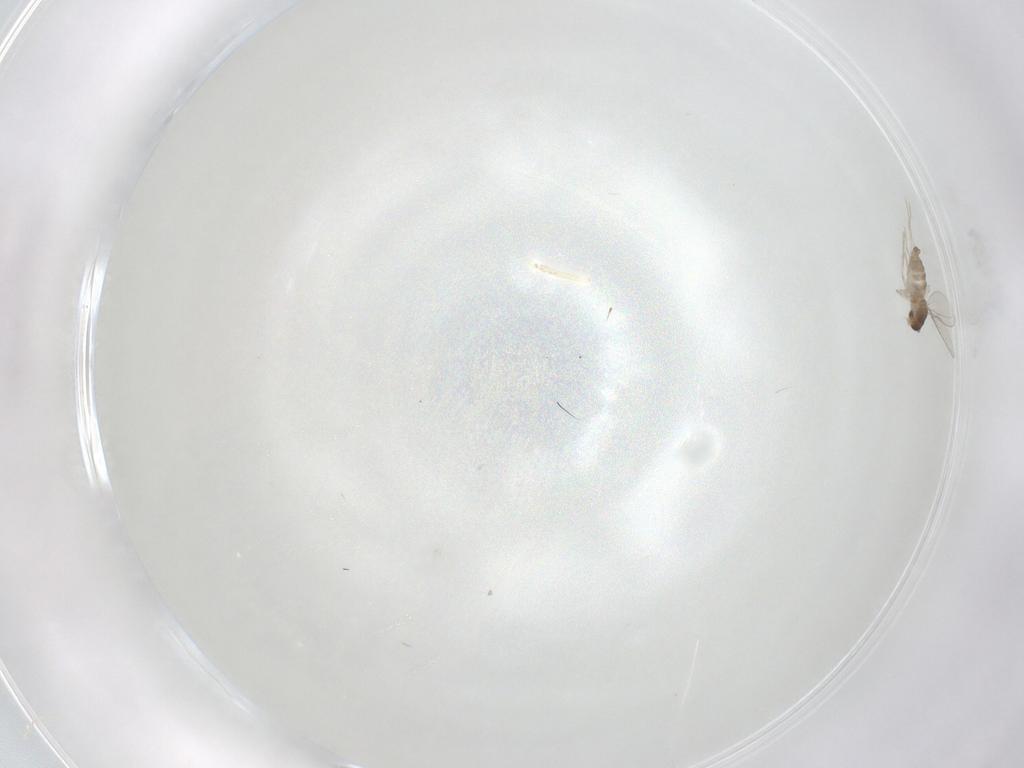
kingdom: Animalia
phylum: Arthropoda
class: Insecta
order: Diptera
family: Cecidomyiidae
